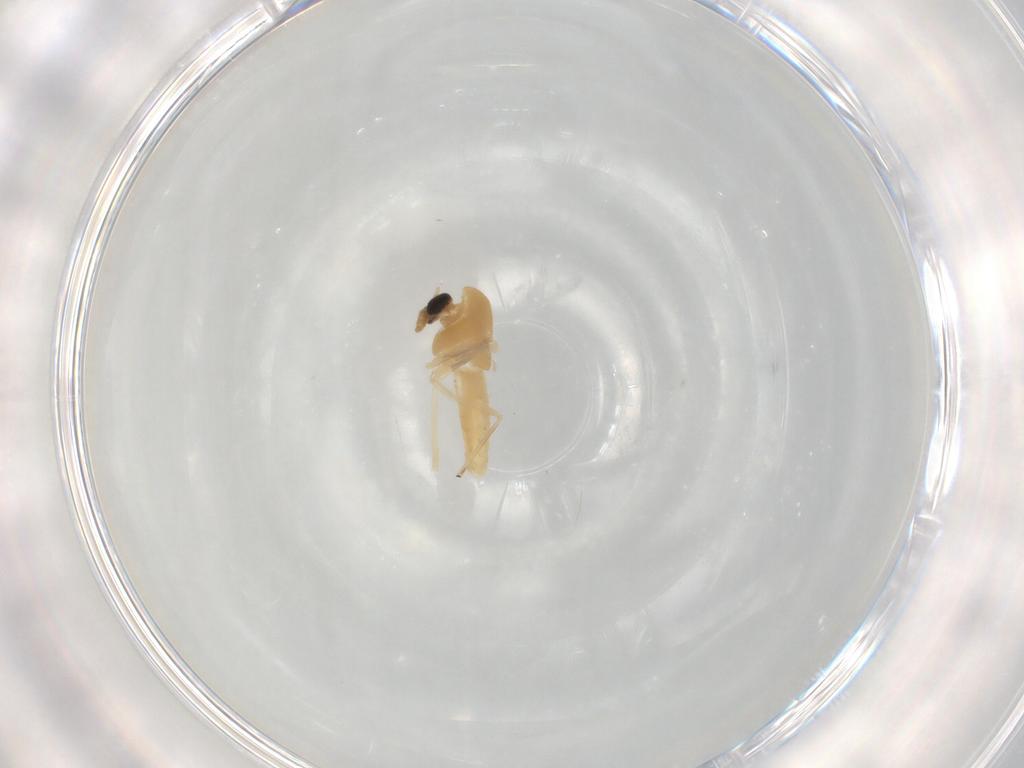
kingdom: Animalia
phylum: Arthropoda
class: Insecta
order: Diptera
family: Chironomidae
